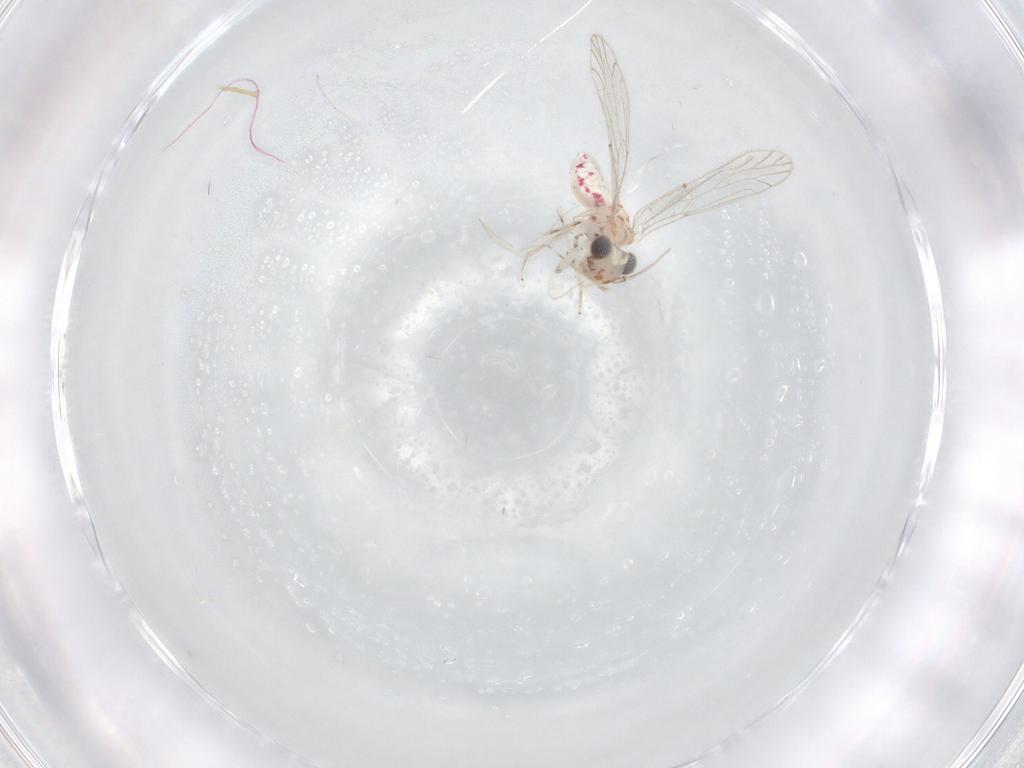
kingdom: Animalia
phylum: Arthropoda
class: Insecta
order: Psocodea
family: Caeciliusidae
